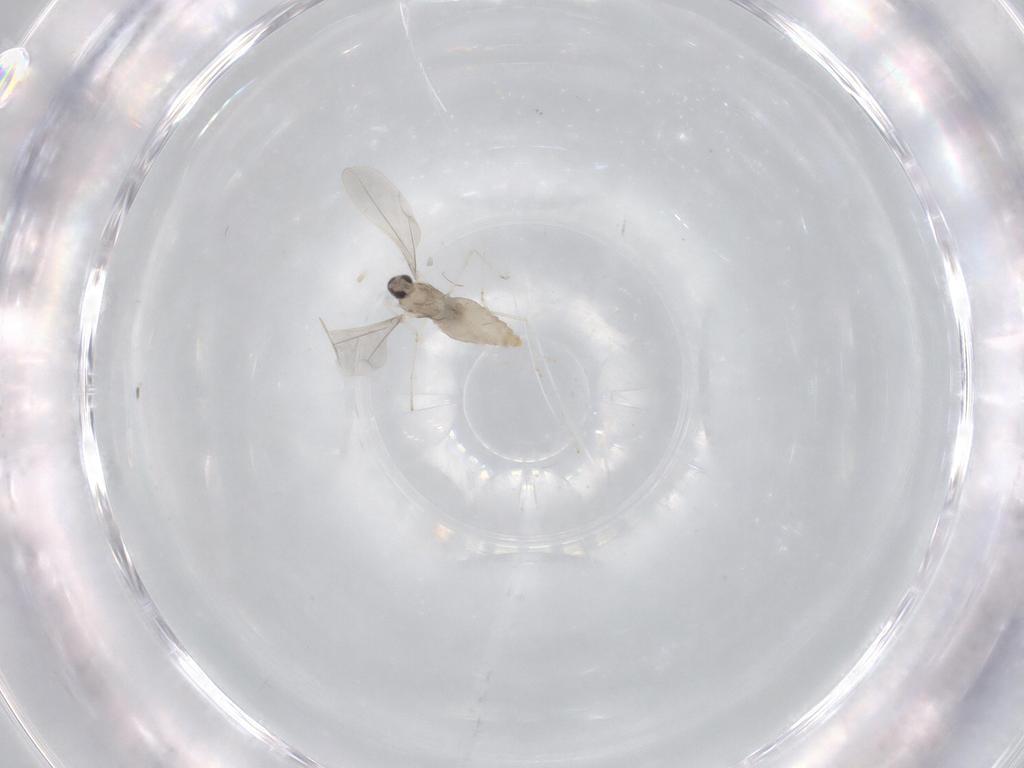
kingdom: Animalia
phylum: Arthropoda
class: Insecta
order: Diptera
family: Cecidomyiidae
